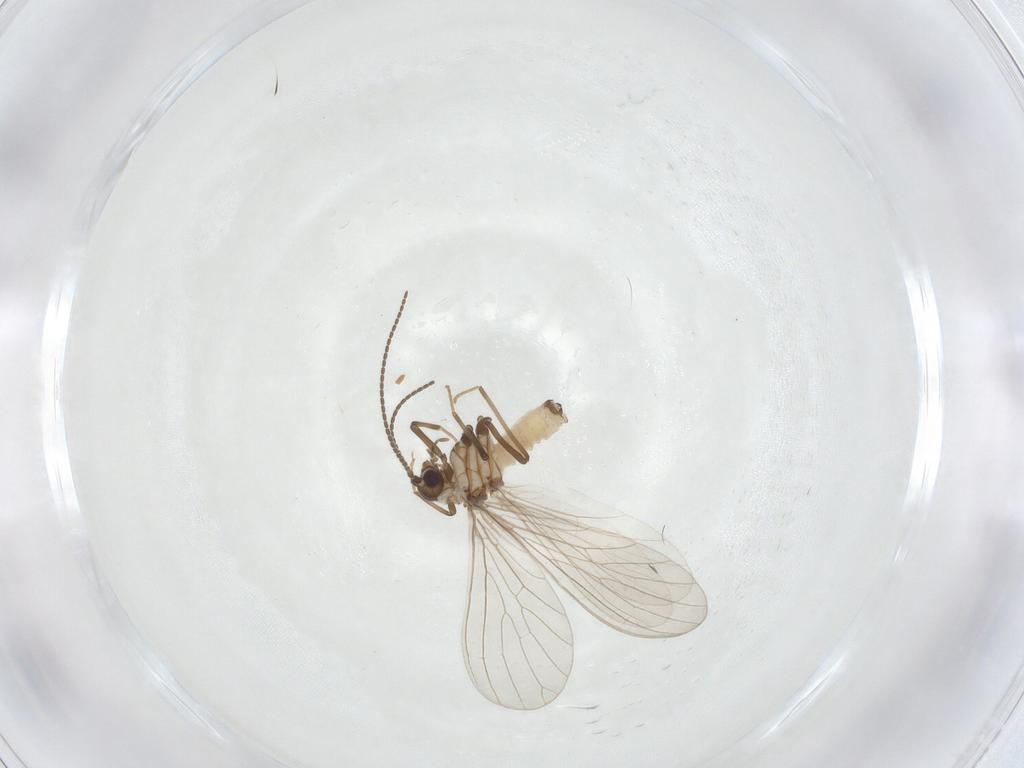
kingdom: Animalia
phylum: Arthropoda
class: Insecta
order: Neuroptera
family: Coniopterygidae
